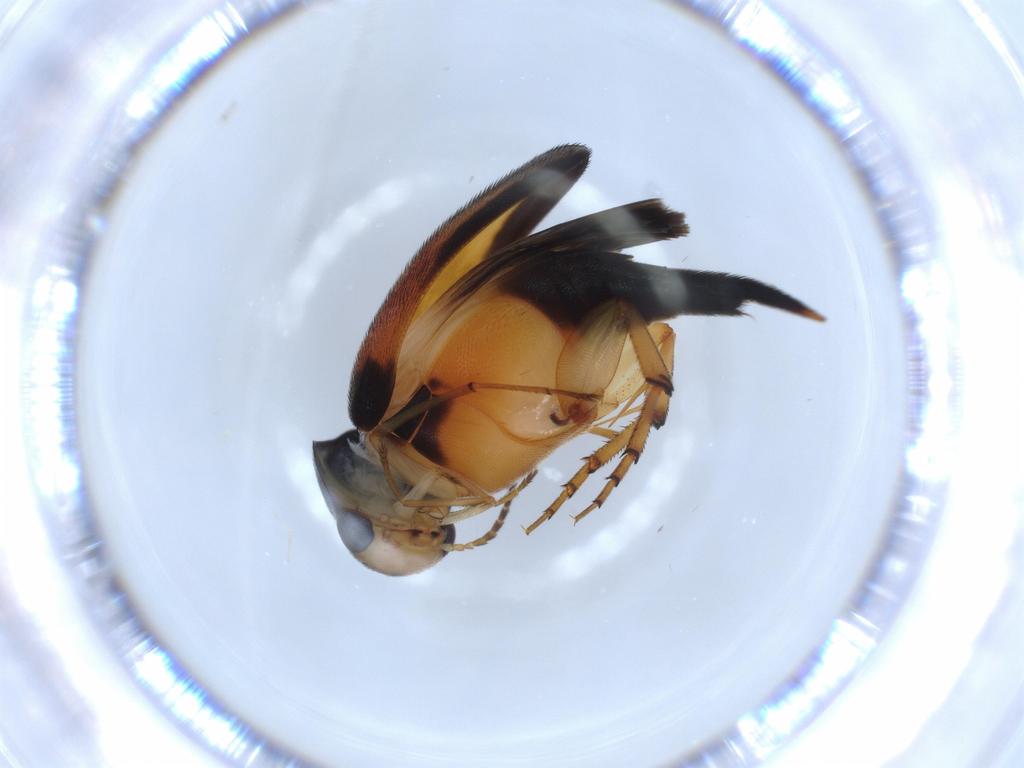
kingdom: Animalia
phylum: Arthropoda
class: Insecta
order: Coleoptera
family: Mordellidae
